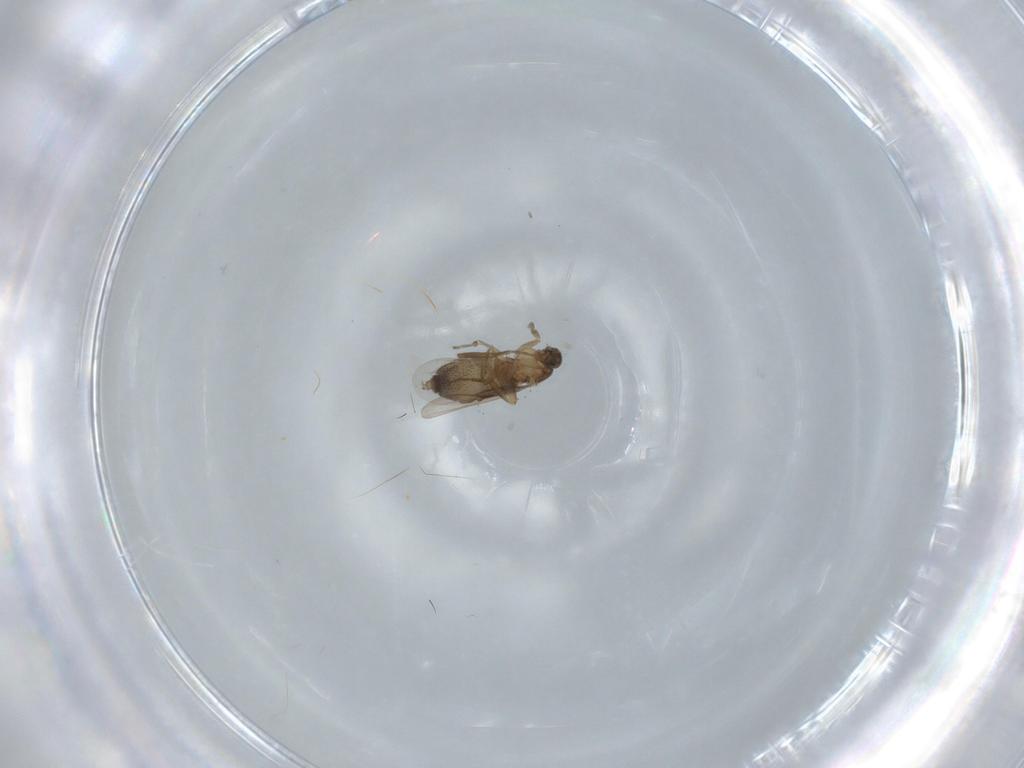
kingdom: Animalia
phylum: Arthropoda
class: Insecta
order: Diptera
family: Phoridae
